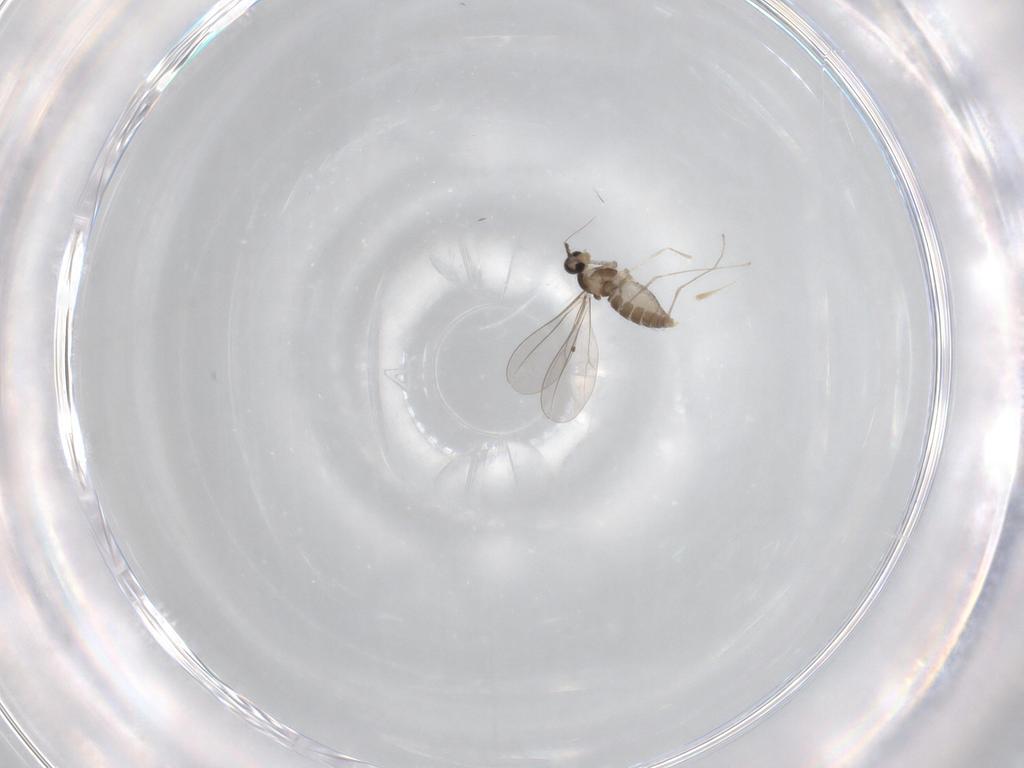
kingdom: Animalia
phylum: Arthropoda
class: Insecta
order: Diptera
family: Cecidomyiidae
